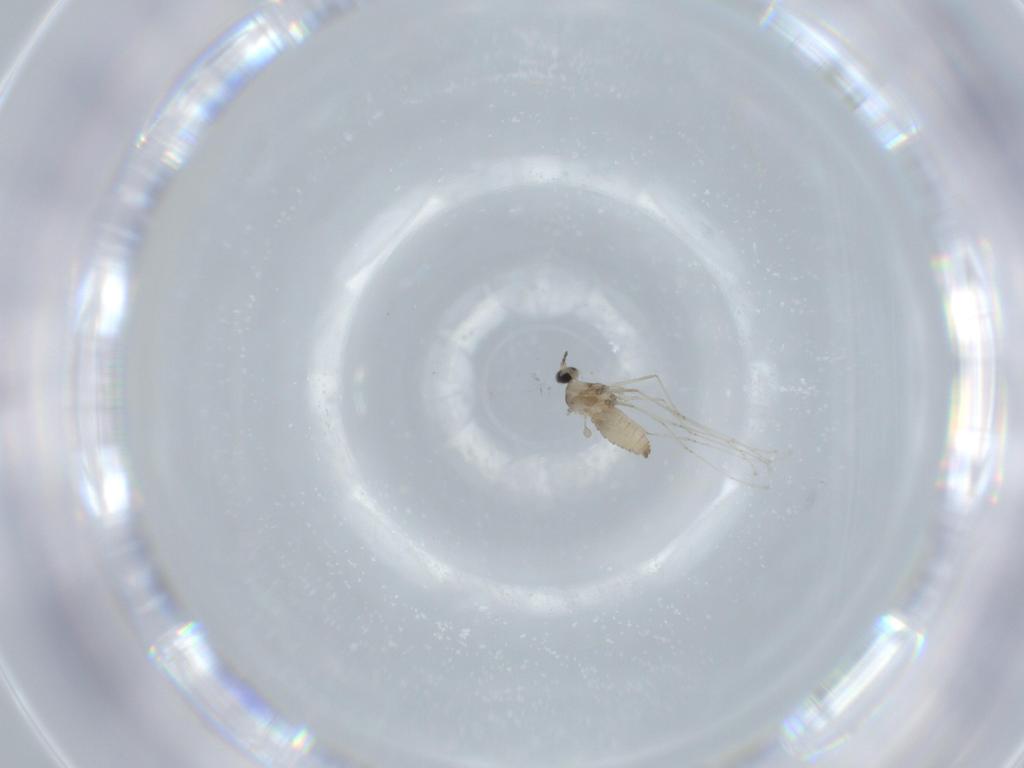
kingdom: Animalia
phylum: Arthropoda
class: Insecta
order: Diptera
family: Cecidomyiidae
